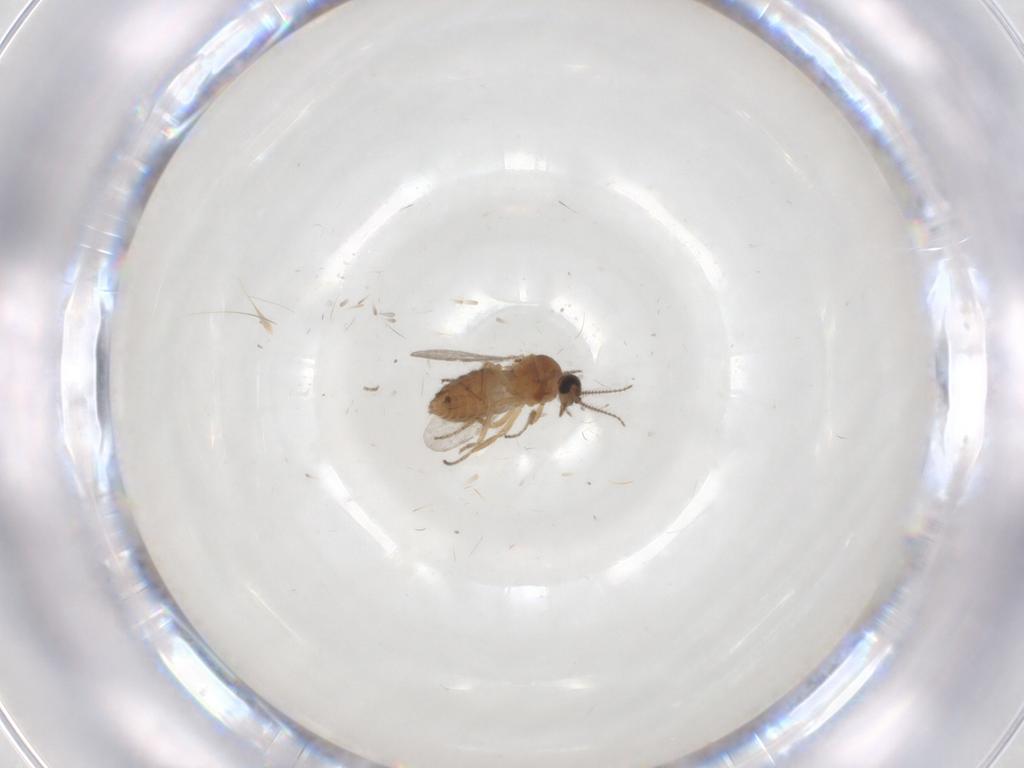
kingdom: Animalia
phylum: Arthropoda
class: Insecta
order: Diptera
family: Ceratopogonidae
